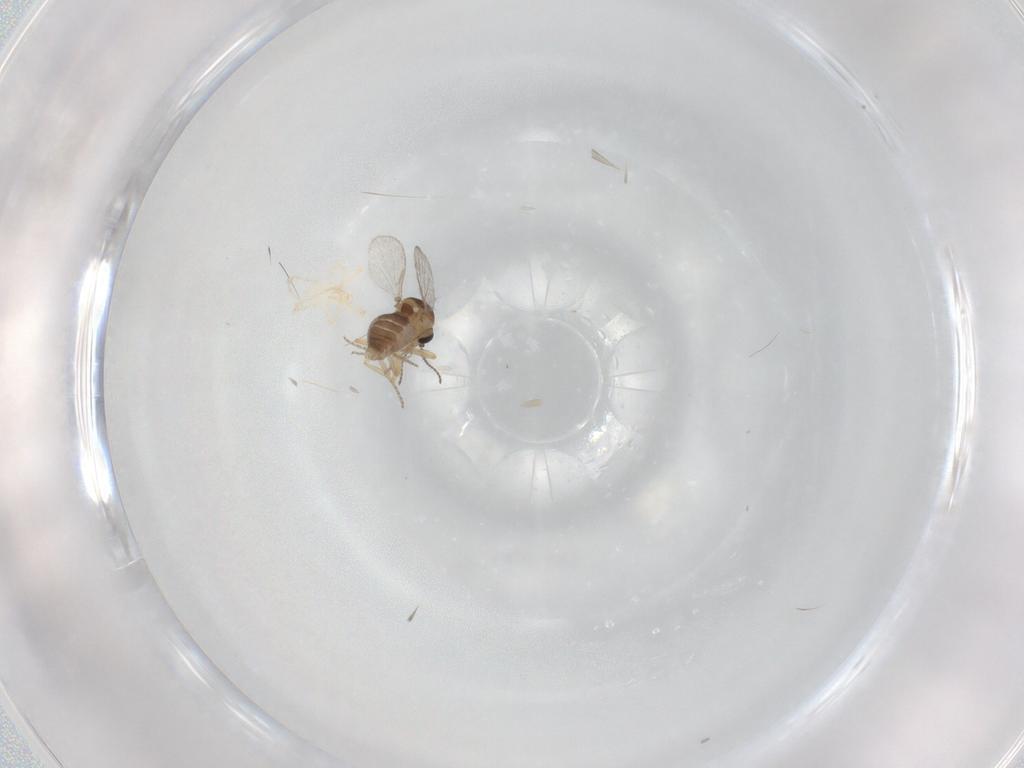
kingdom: Animalia
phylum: Arthropoda
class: Insecta
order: Diptera
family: Ceratopogonidae
